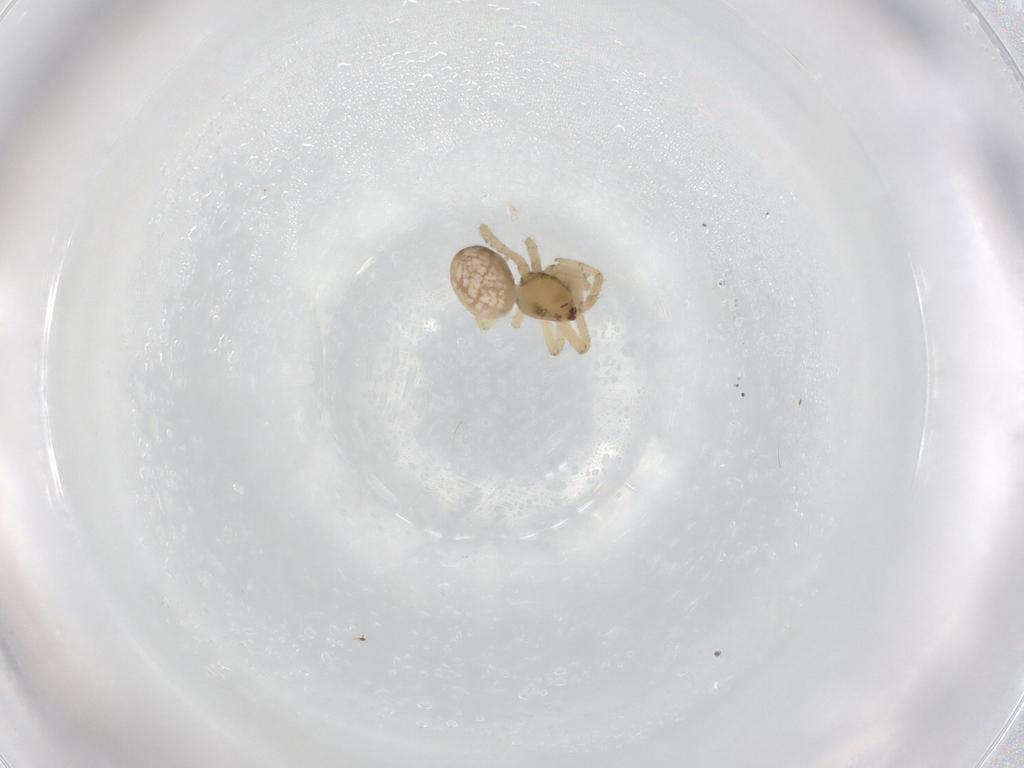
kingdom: Animalia
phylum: Arthropoda
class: Arachnida
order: Araneae
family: Araneidae
